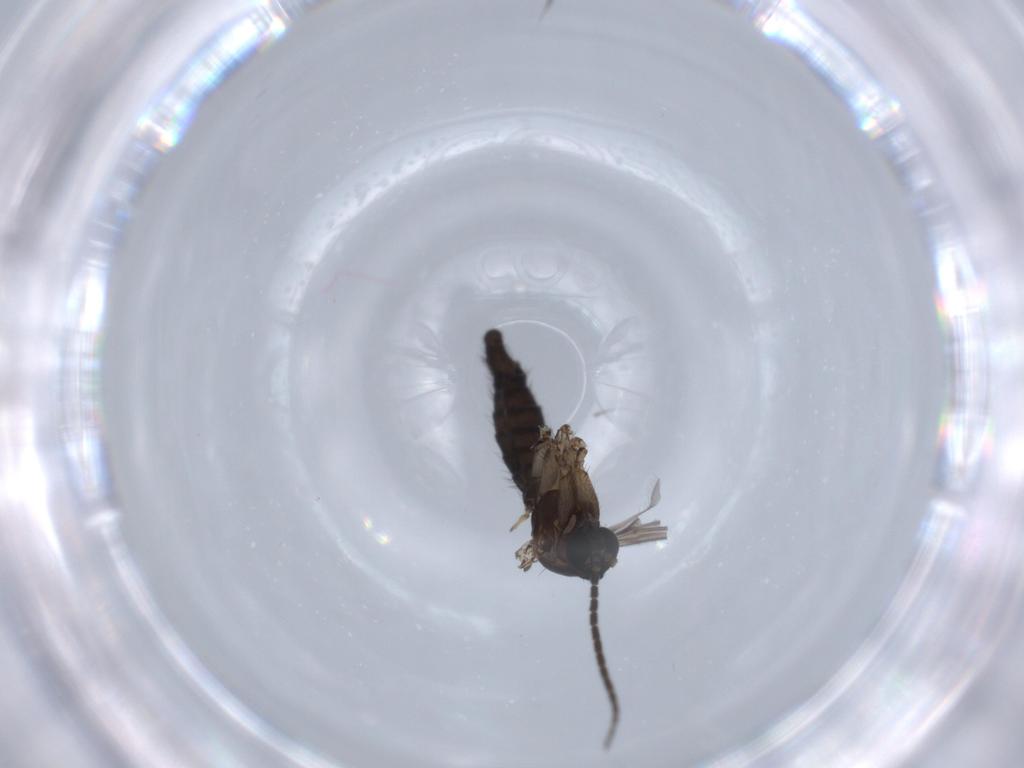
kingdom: Animalia
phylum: Arthropoda
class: Insecta
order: Diptera
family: Sciaridae
